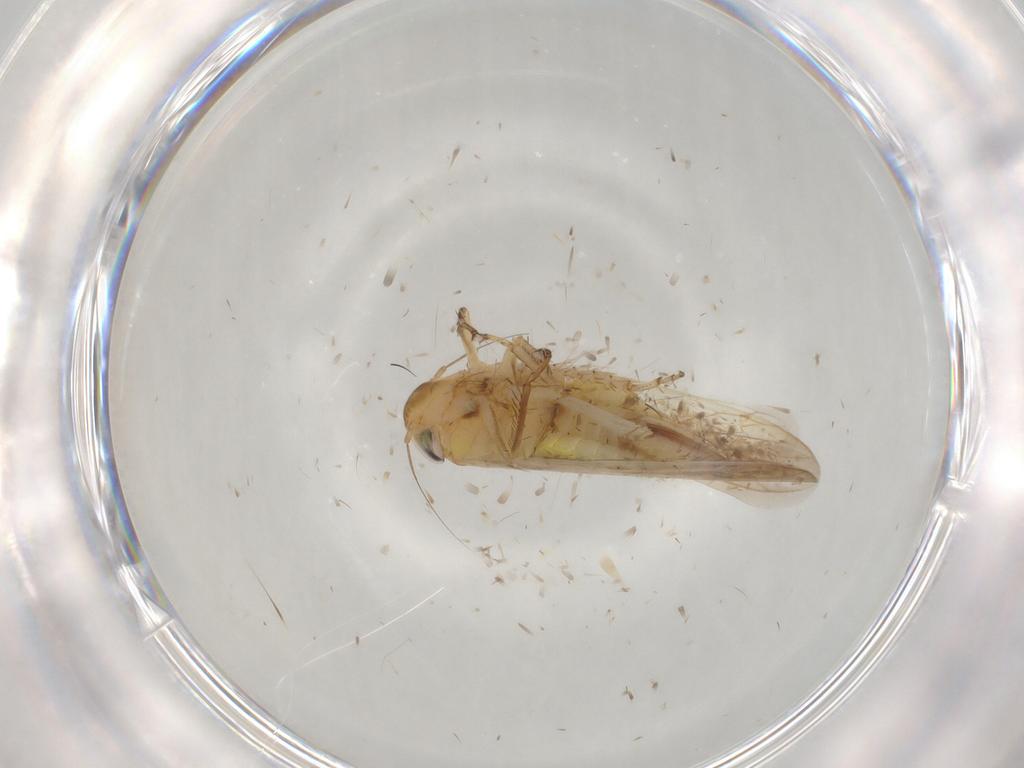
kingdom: Animalia
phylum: Arthropoda
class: Insecta
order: Hemiptera
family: Cicadellidae
